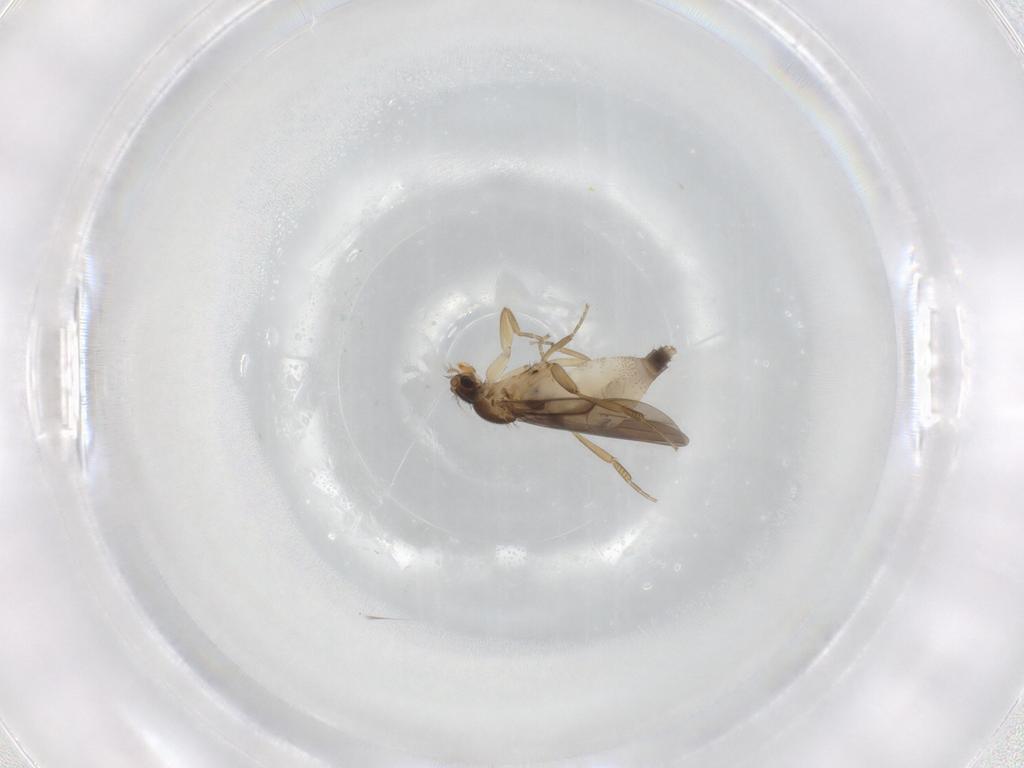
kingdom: Animalia
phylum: Arthropoda
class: Insecta
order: Diptera
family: Phoridae
